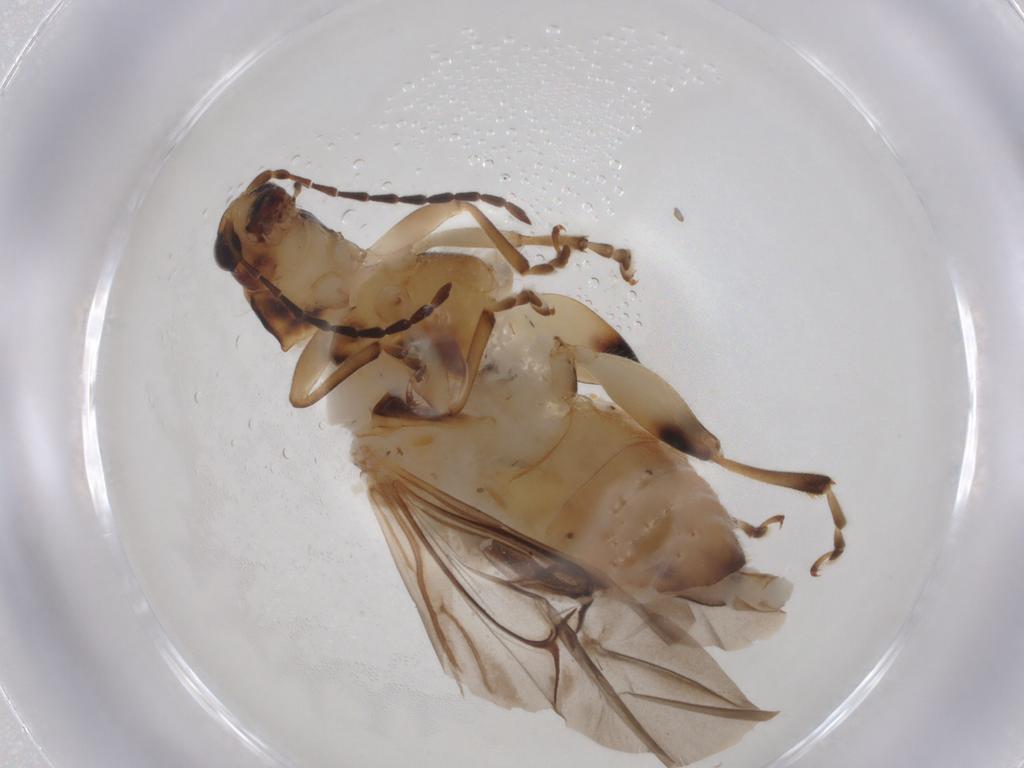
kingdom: Animalia
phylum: Arthropoda
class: Insecta
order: Coleoptera
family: Chrysomelidae
